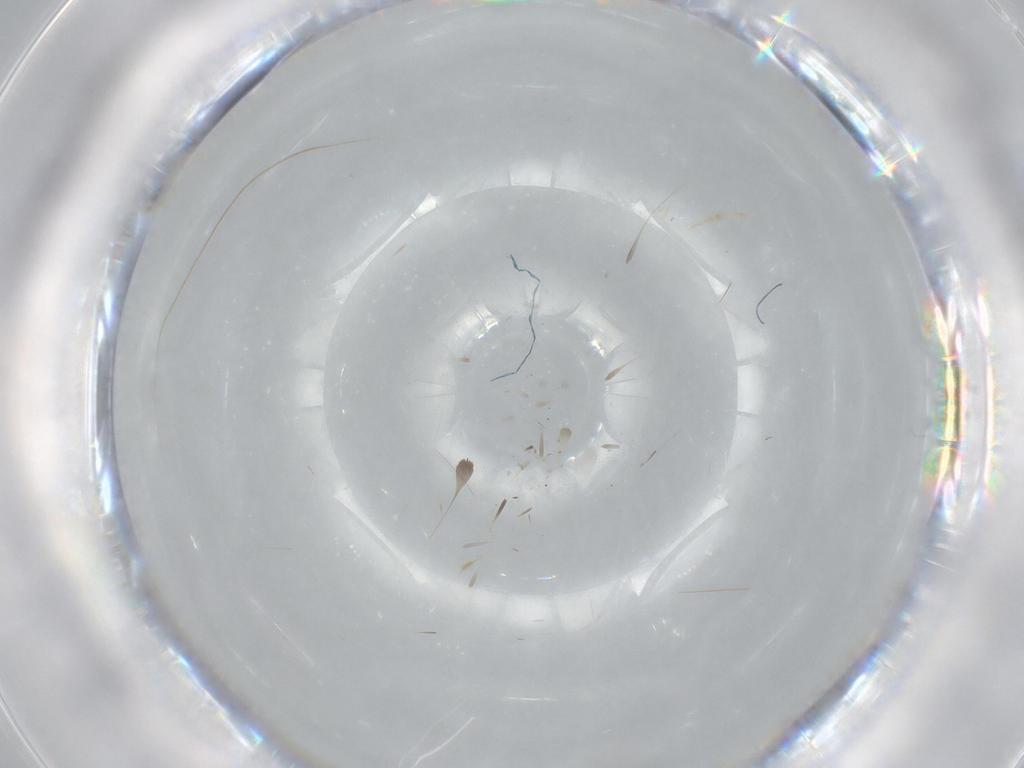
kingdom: Animalia
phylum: Arthropoda
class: Insecta
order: Diptera
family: Cecidomyiidae
